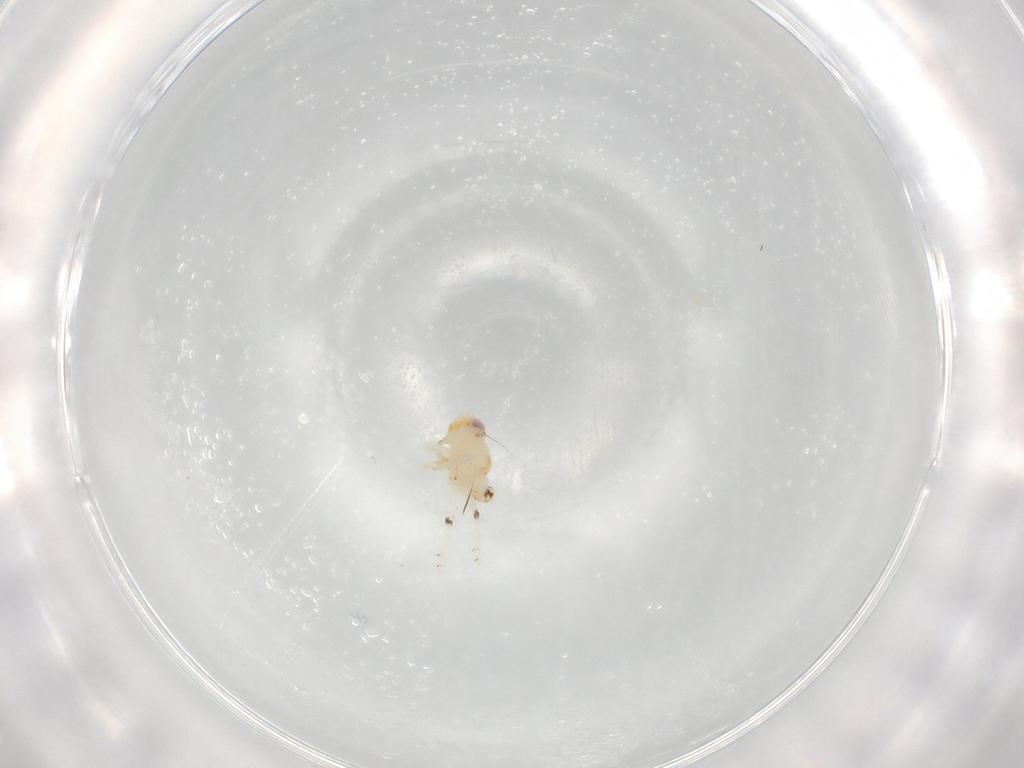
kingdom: Animalia
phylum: Arthropoda
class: Insecta
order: Hemiptera
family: Nogodinidae
